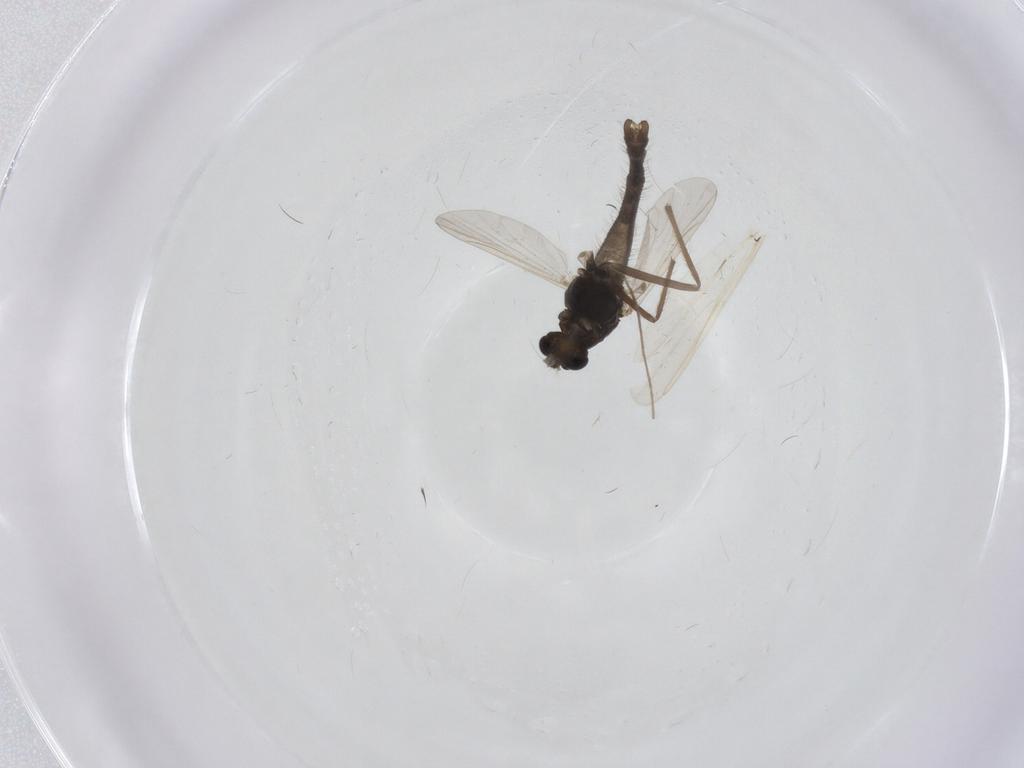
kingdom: Animalia
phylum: Arthropoda
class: Insecta
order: Diptera
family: Chironomidae
